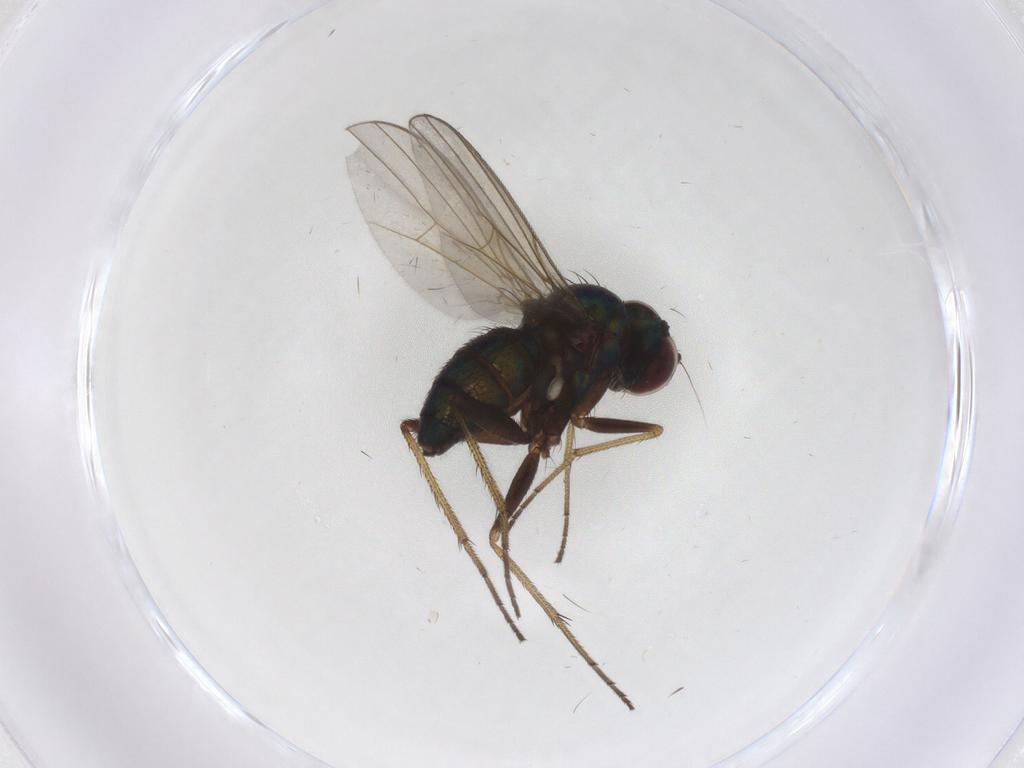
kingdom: Animalia
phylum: Arthropoda
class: Insecta
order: Diptera
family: Dolichopodidae
